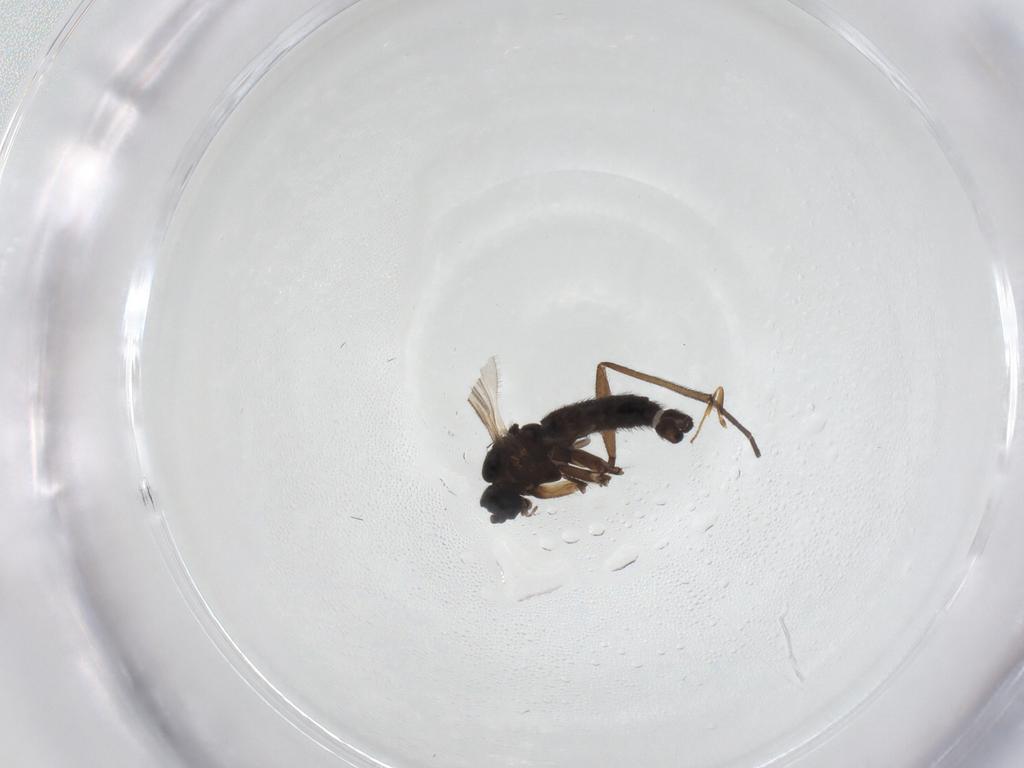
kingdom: Animalia
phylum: Arthropoda
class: Insecta
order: Diptera
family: Sciaridae
